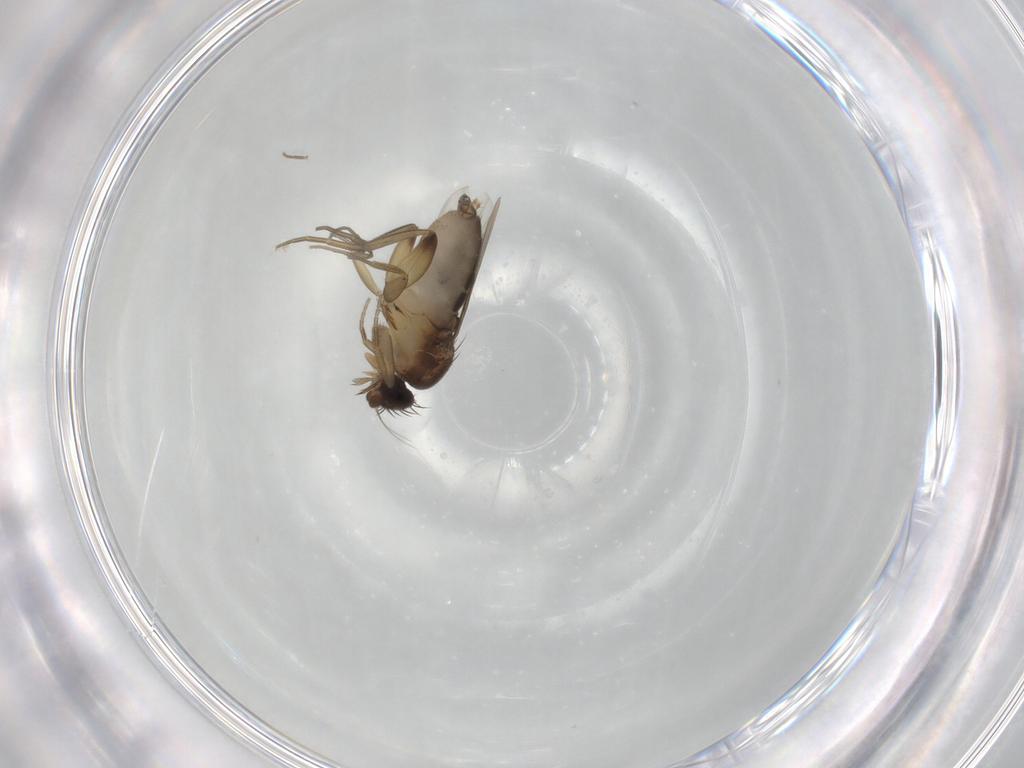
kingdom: Animalia
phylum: Arthropoda
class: Insecta
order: Diptera
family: Phoridae
